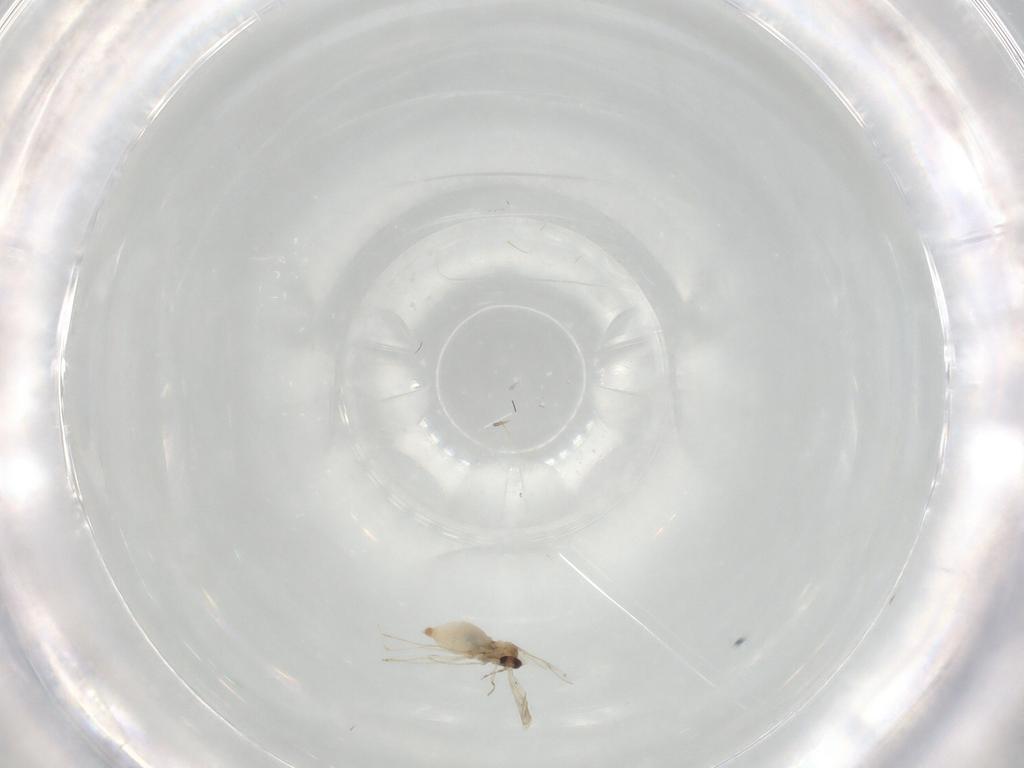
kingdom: Animalia
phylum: Arthropoda
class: Insecta
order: Diptera
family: Cecidomyiidae
